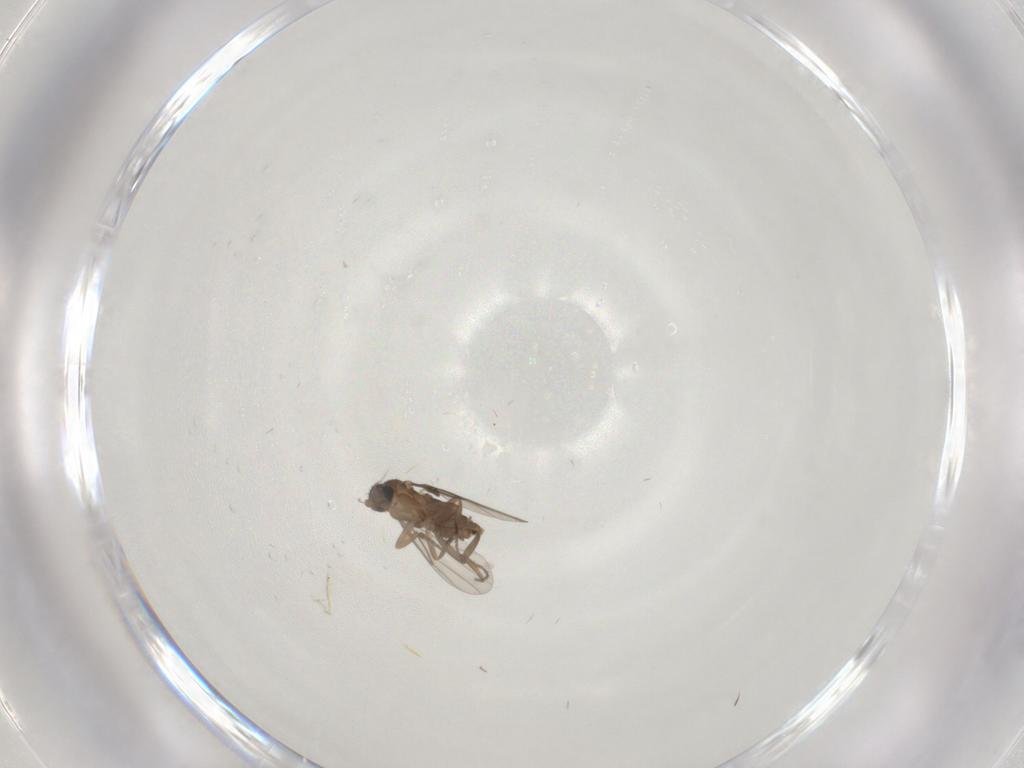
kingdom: Animalia
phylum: Arthropoda
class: Insecta
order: Diptera
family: Phoridae
